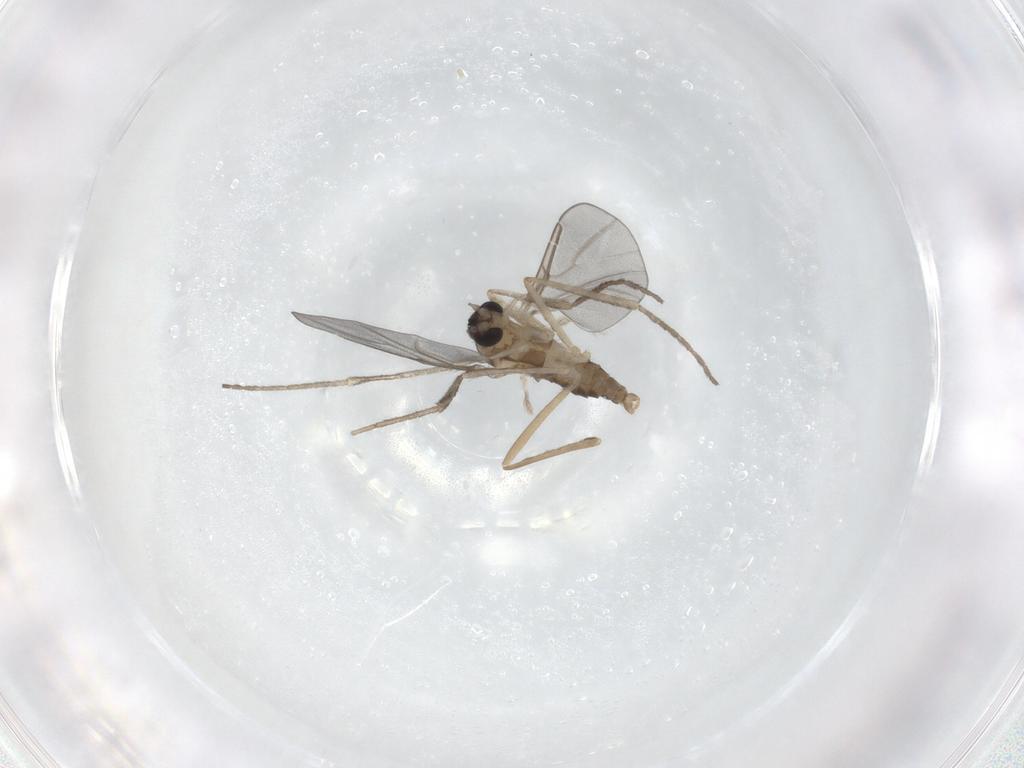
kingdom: Animalia
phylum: Arthropoda
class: Insecta
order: Diptera
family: Cecidomyiidae
